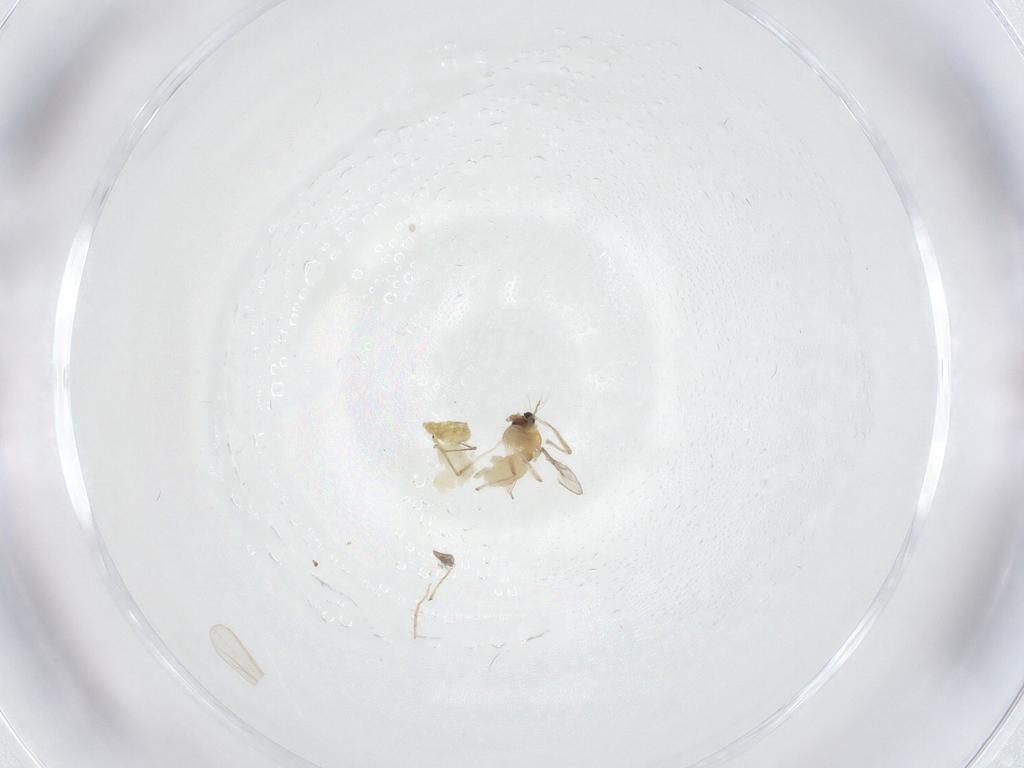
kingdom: Animalia
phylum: Arthropoda
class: Insecta
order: Diptera
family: Chironomidae
